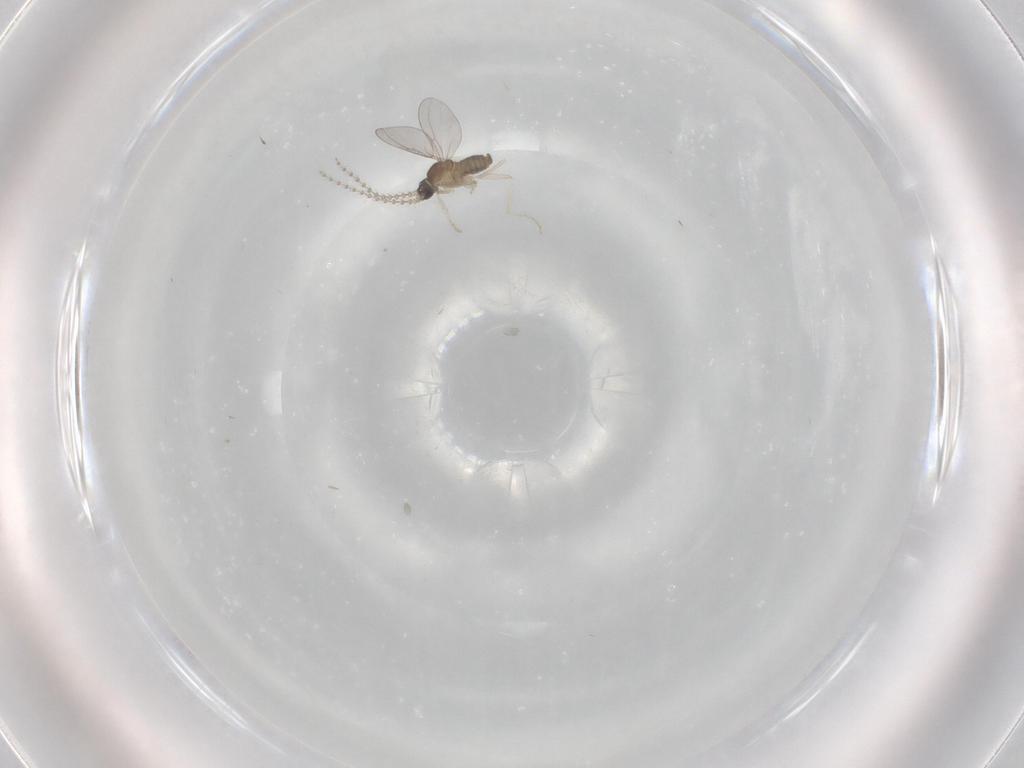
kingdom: Animalia
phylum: Arthropoda
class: Insecta
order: Diptera
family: Cecidomyiidae
